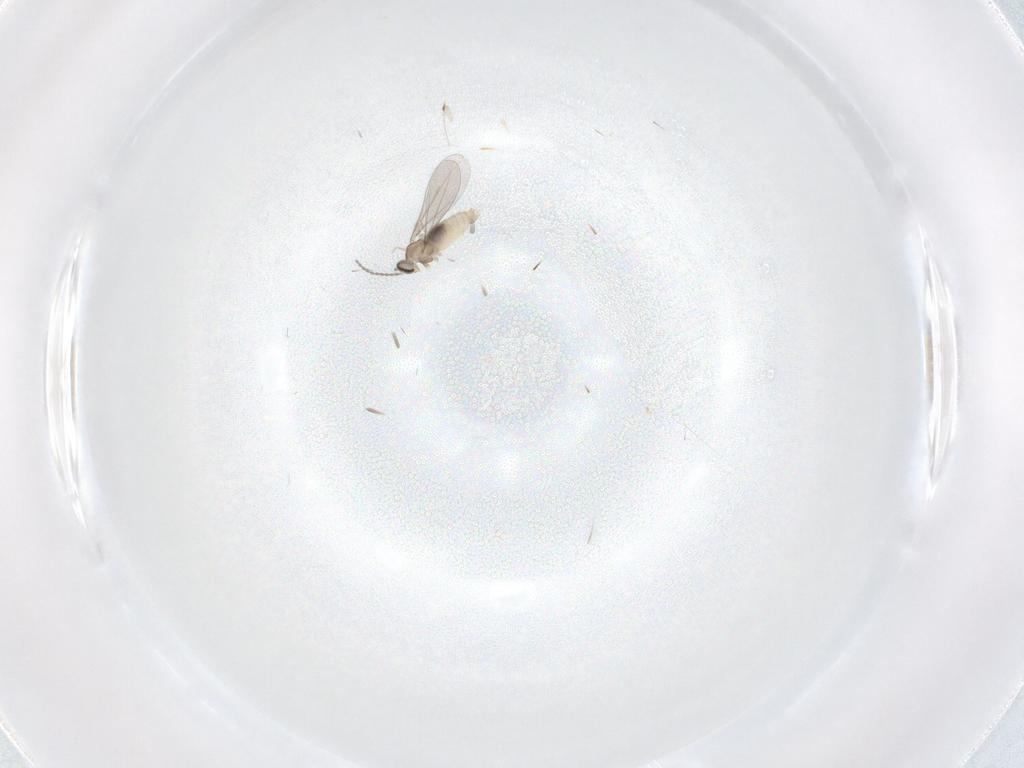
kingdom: Animalia
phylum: Arthropoda
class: Insecta
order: Diptera
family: Cecidomyiidae
